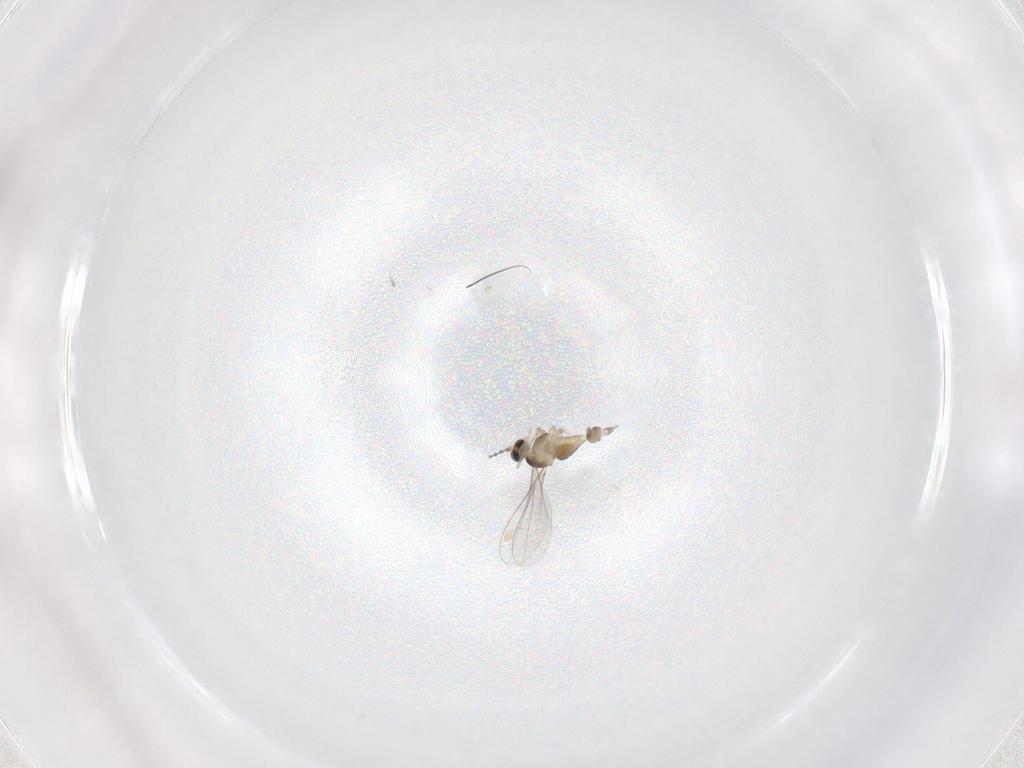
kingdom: Animalia
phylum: Arthropoda
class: Insecta
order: Diptera
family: Cecidomyiidae
